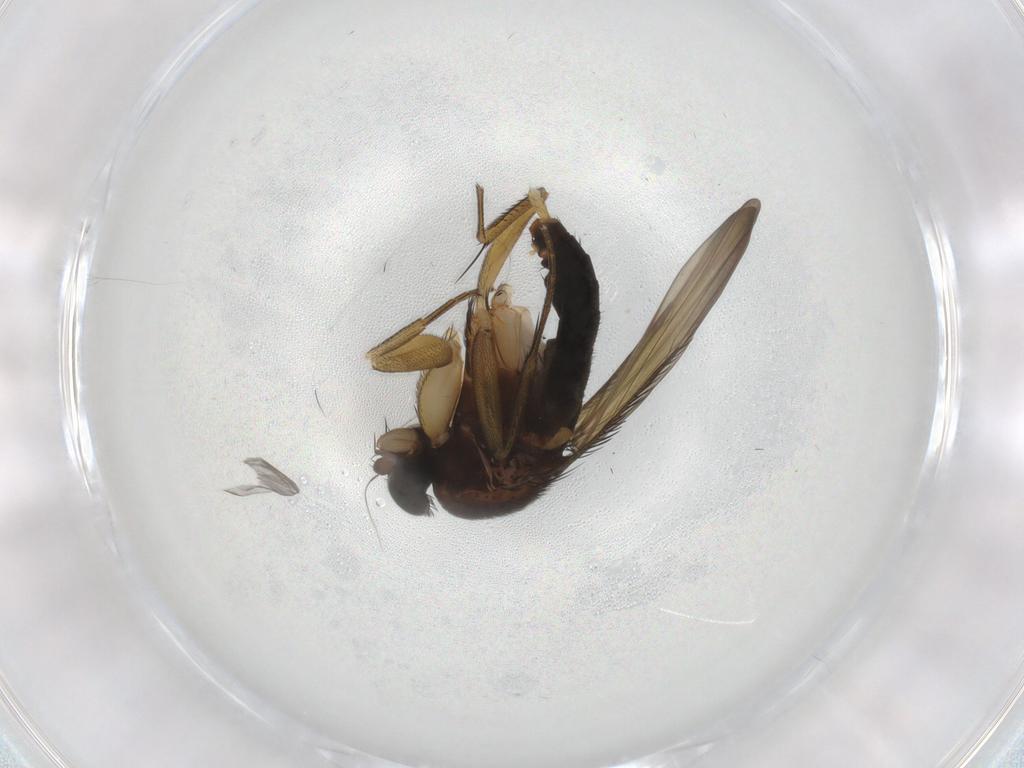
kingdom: Animalia
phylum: Arthropoda
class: Insecta
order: Diptera
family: Phoridae
